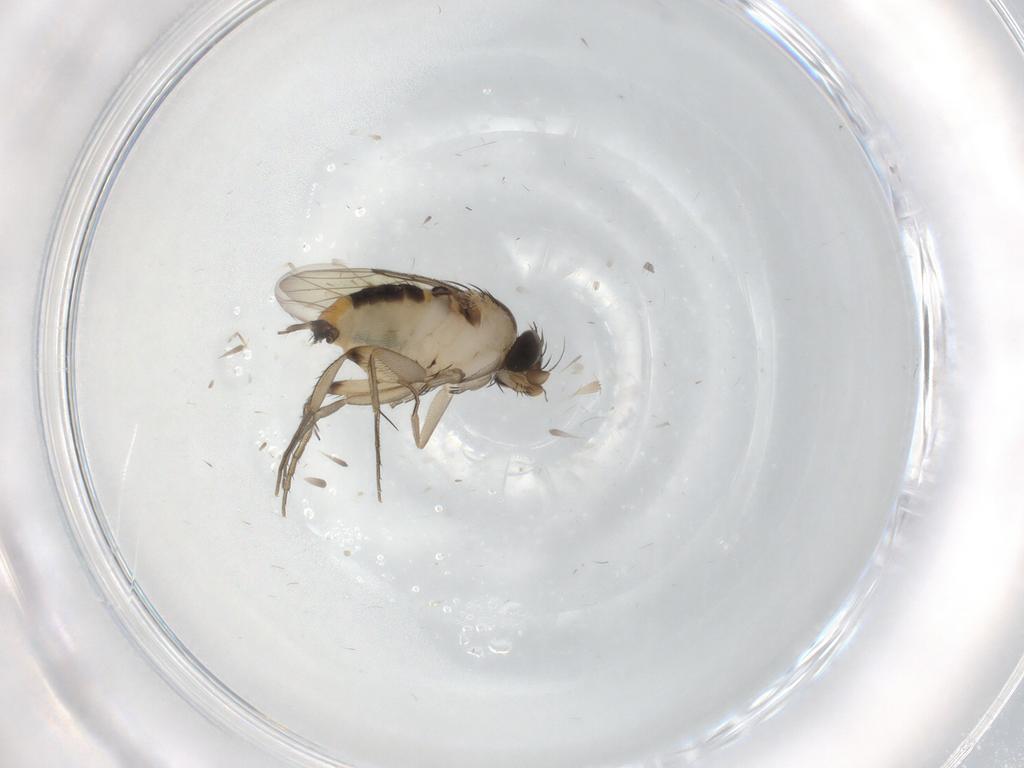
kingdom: Animalia
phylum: Arthropoda
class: Insecta
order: Diptera
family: Phoridae
